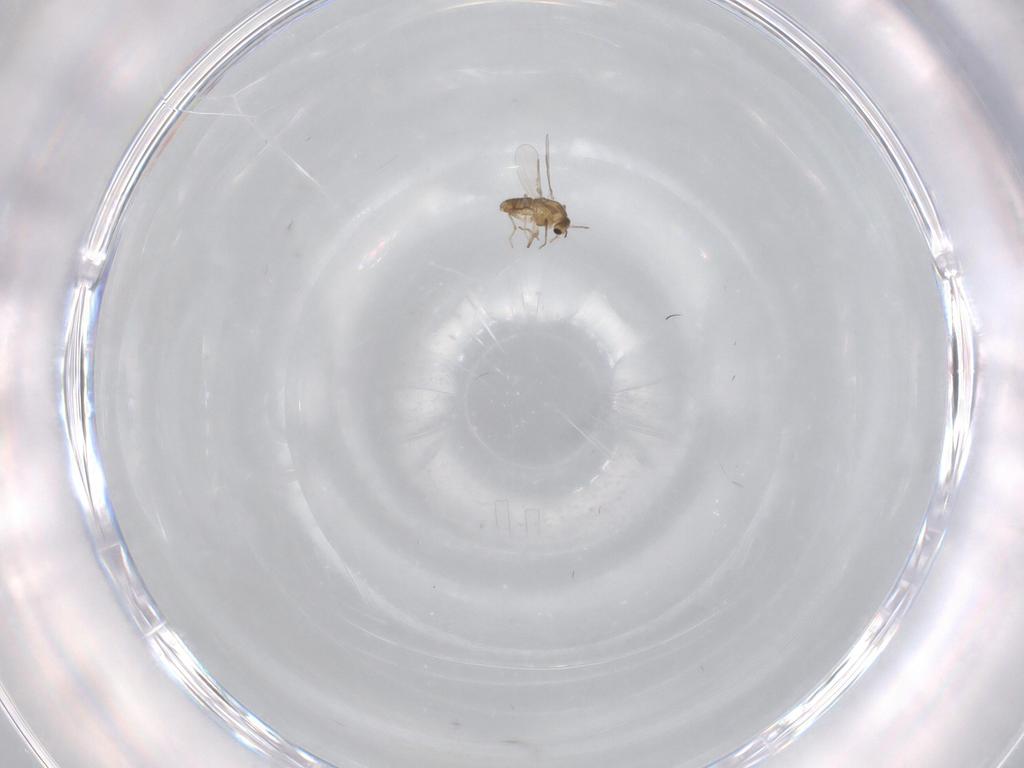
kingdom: Animalia
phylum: Arthropoda
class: Insecta
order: Diptera
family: Chironomidae
